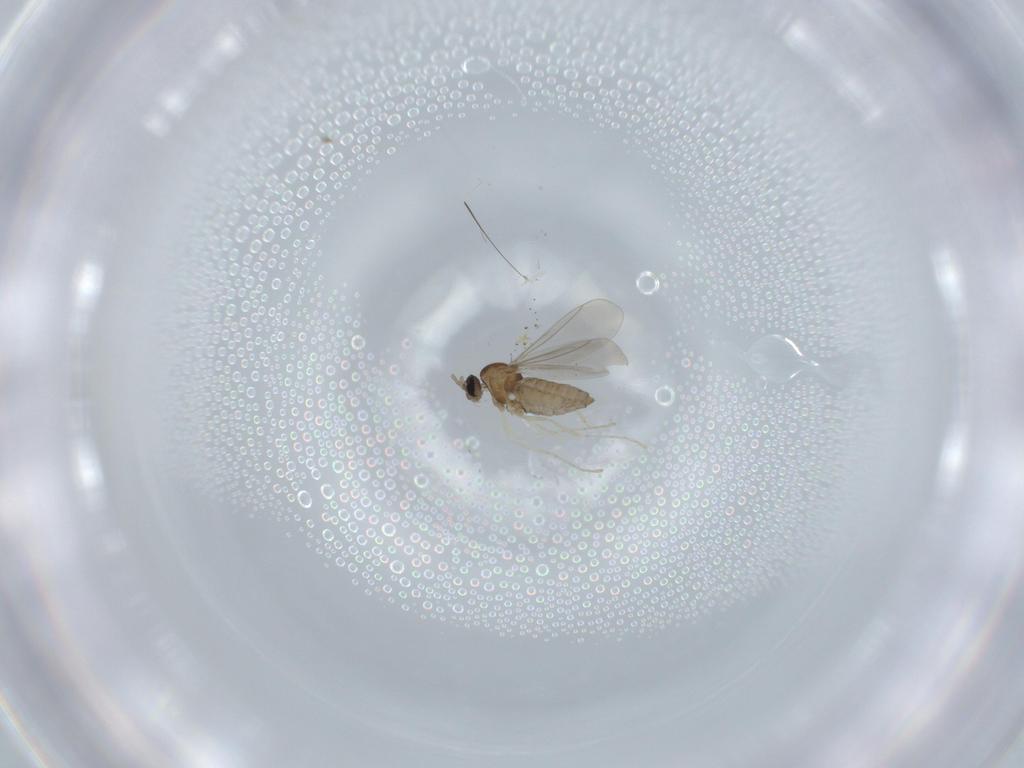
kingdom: Animalia
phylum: Arthropoda
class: Insecta
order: Diptera
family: Cecidomyiidae
